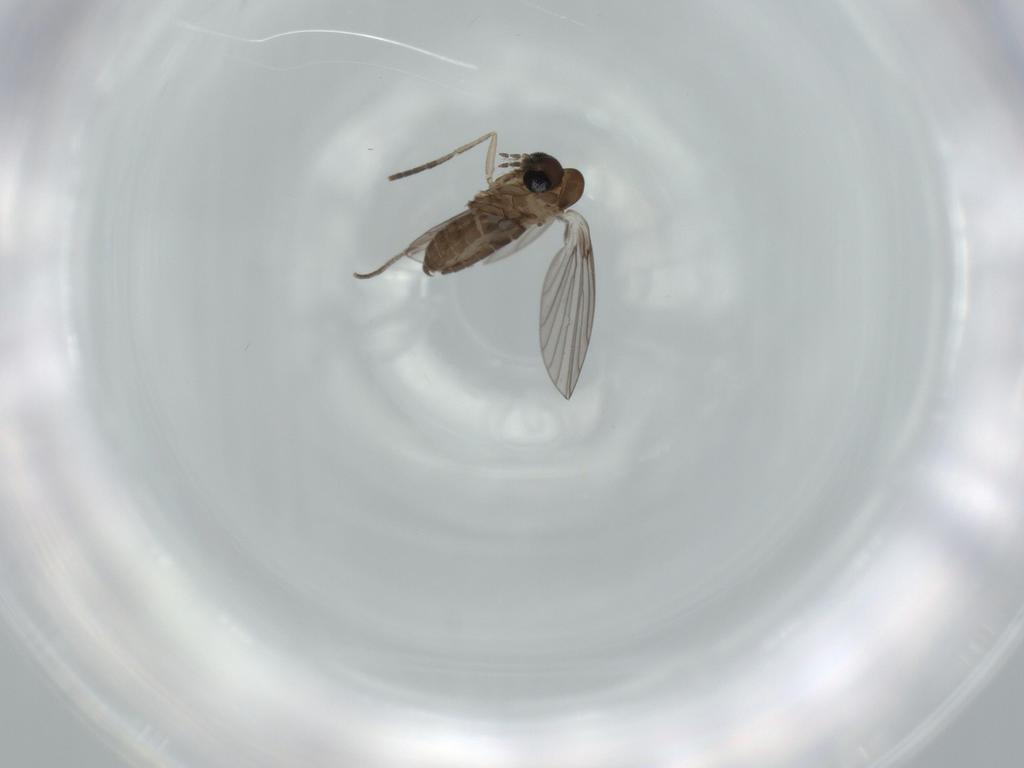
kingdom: Animalia
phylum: Arthropoda
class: Insecta
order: Diptera
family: Psychodidae
